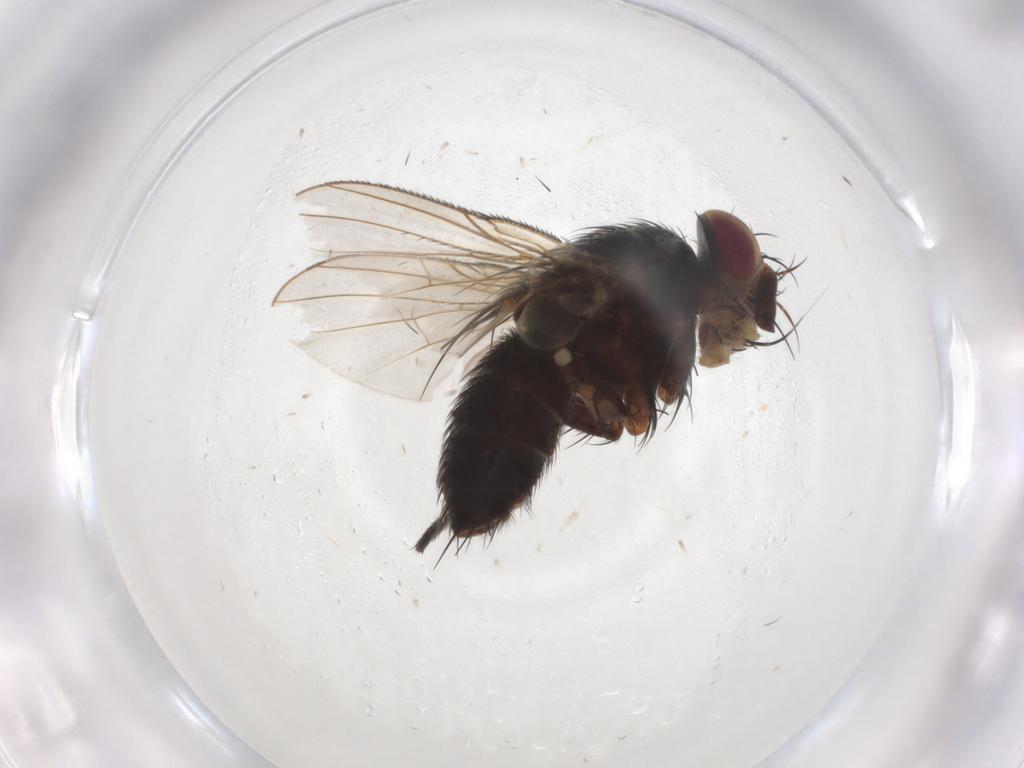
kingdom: Animalia
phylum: Arthropoda
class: Insecta
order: Diptera
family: Tachinidae
